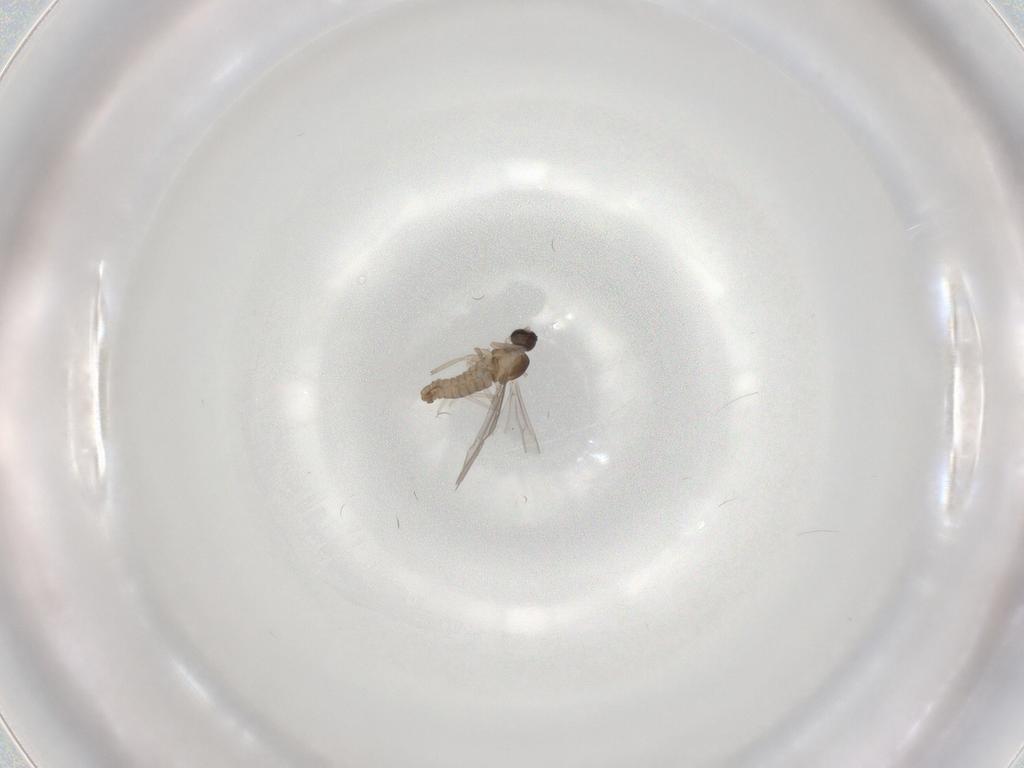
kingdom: Animalia
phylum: Arthropoda
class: Insecta
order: Diptera
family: Cecidomyiidae
